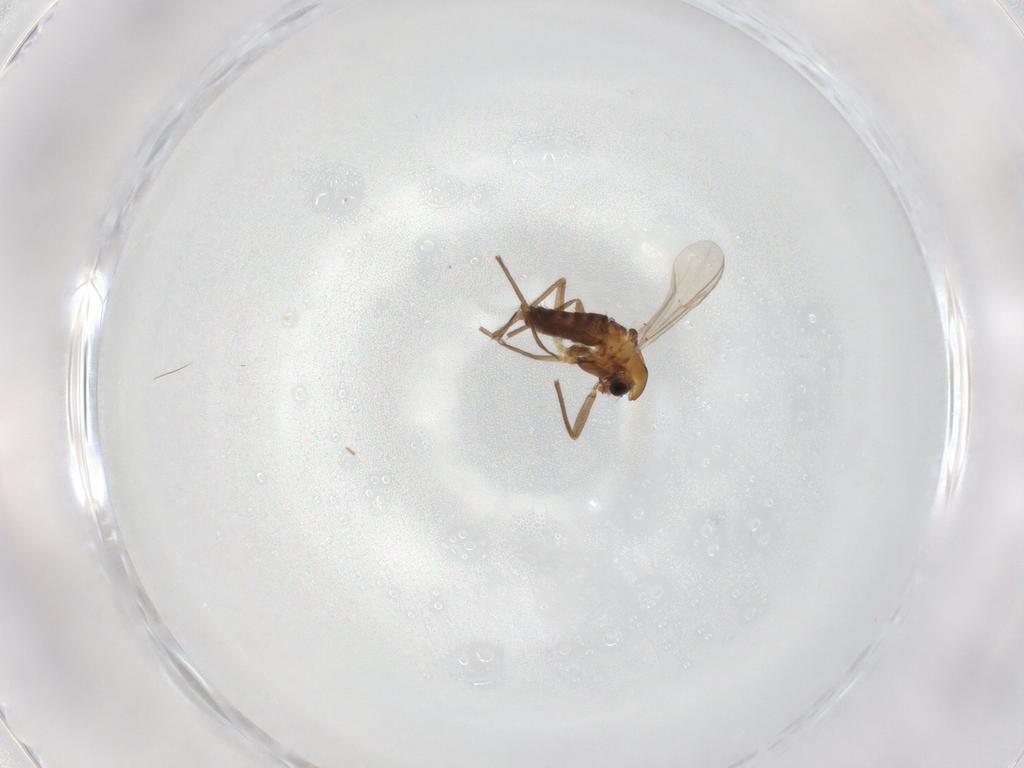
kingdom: Animalia
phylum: Arthropoda
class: Insecta
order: Diptera
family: Chironomidae
